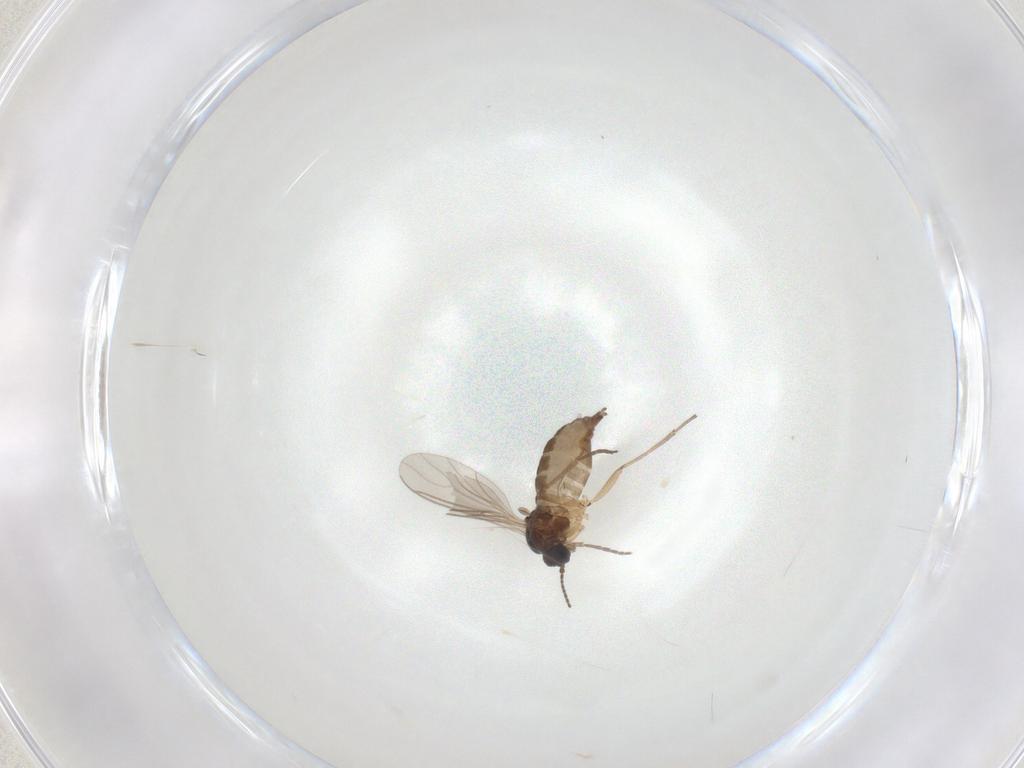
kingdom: Animalia
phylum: Arthropoda
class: Insecta
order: Diptera
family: Sciaridae
